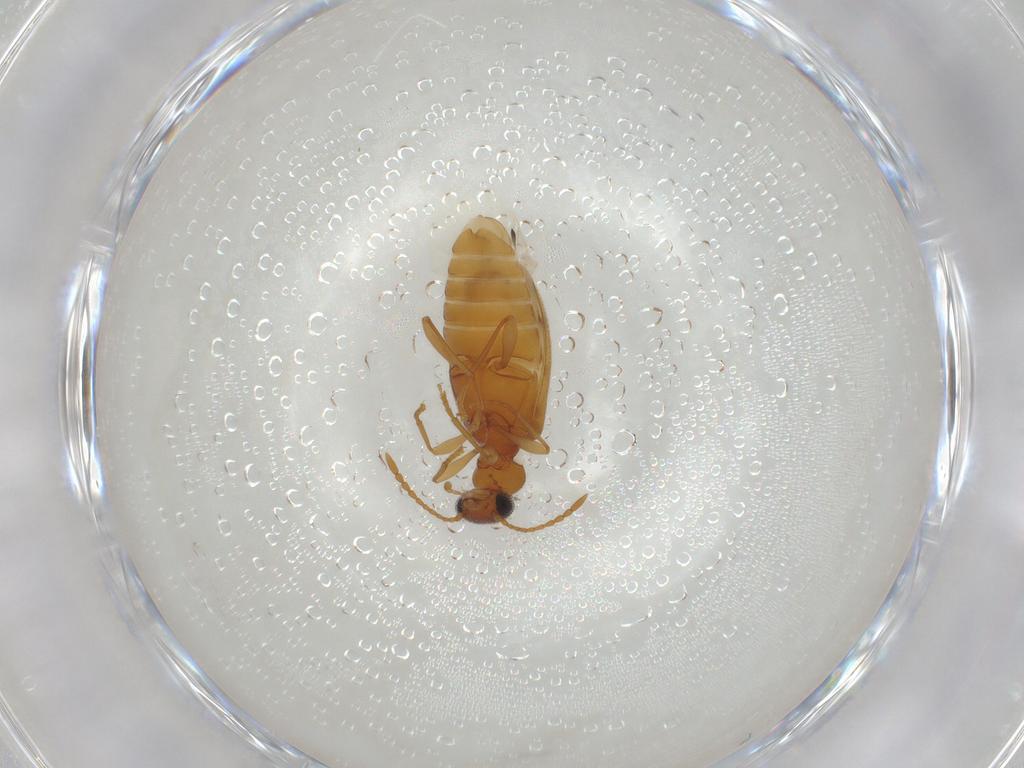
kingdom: Animalia
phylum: Arthropoda
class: Insecta
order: Coleoptera
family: Anthicidae
